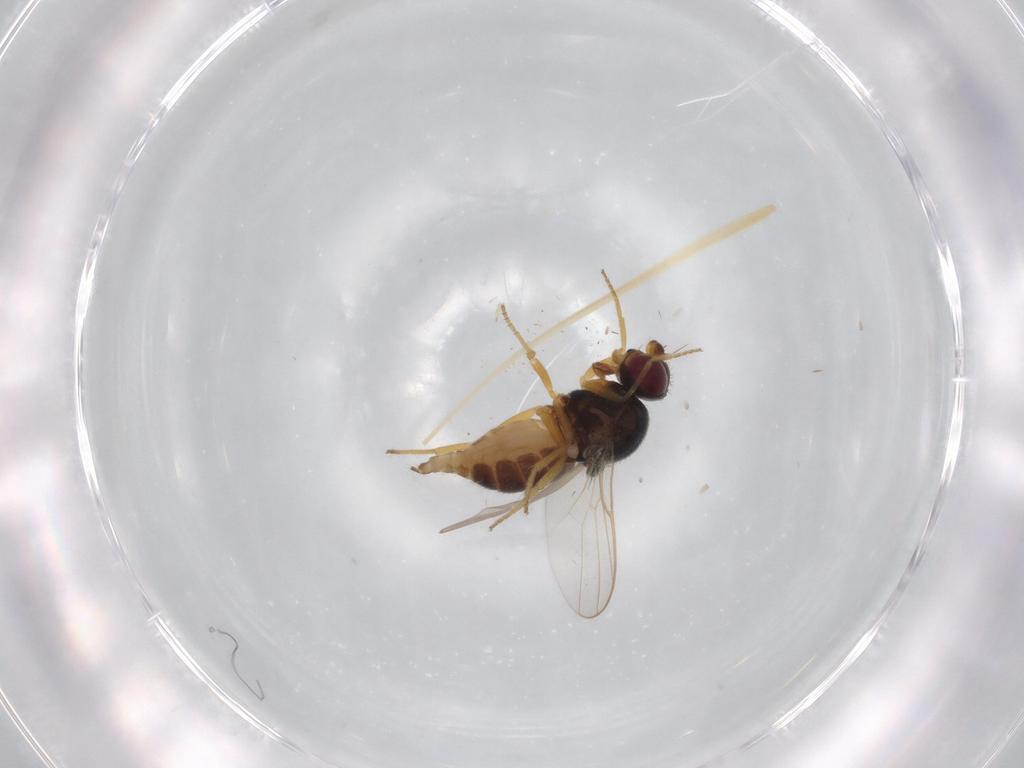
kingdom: Animalia
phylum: Arthropoda
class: Insecta
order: Diptera
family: Chloropidae
